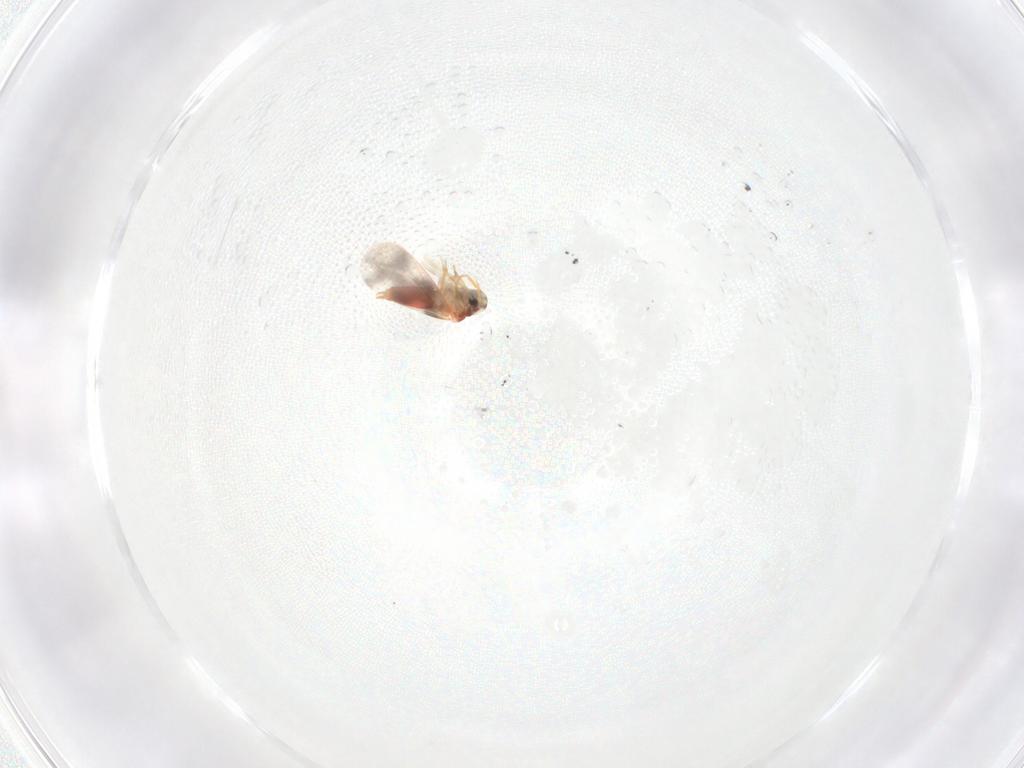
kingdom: Animalia
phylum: Arthropoda
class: Insecta
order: Hemiptera
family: Aleyrodidae
